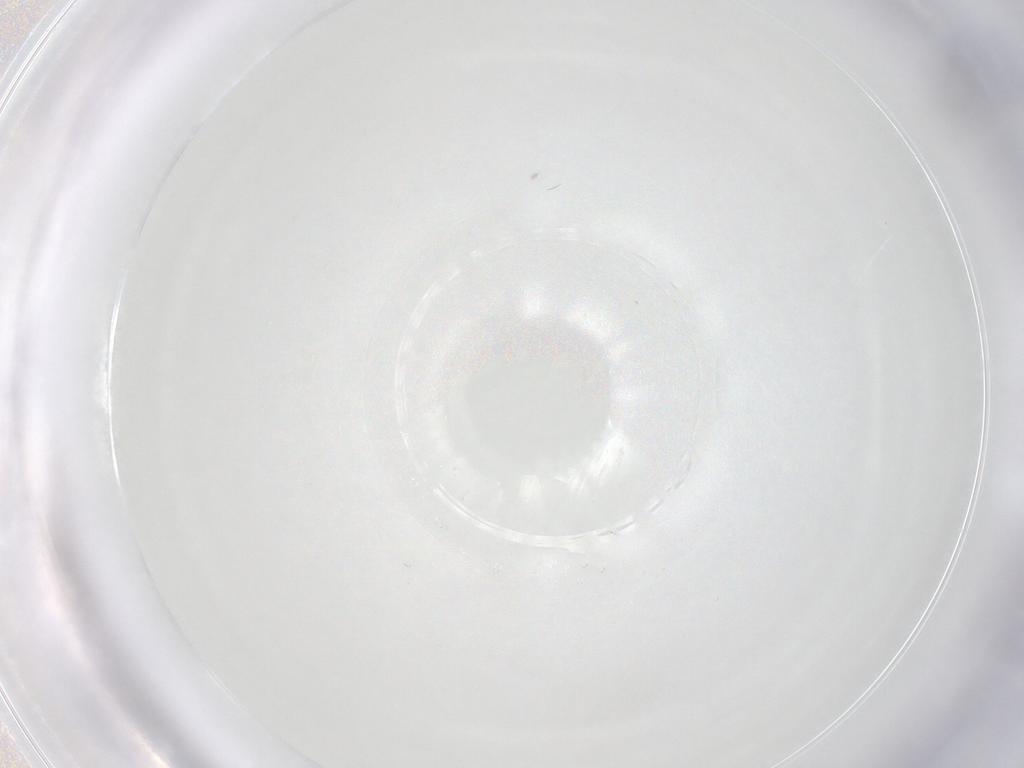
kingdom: Animalia
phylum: Arthropoda
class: Insecta
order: Diptera
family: Phoridae
